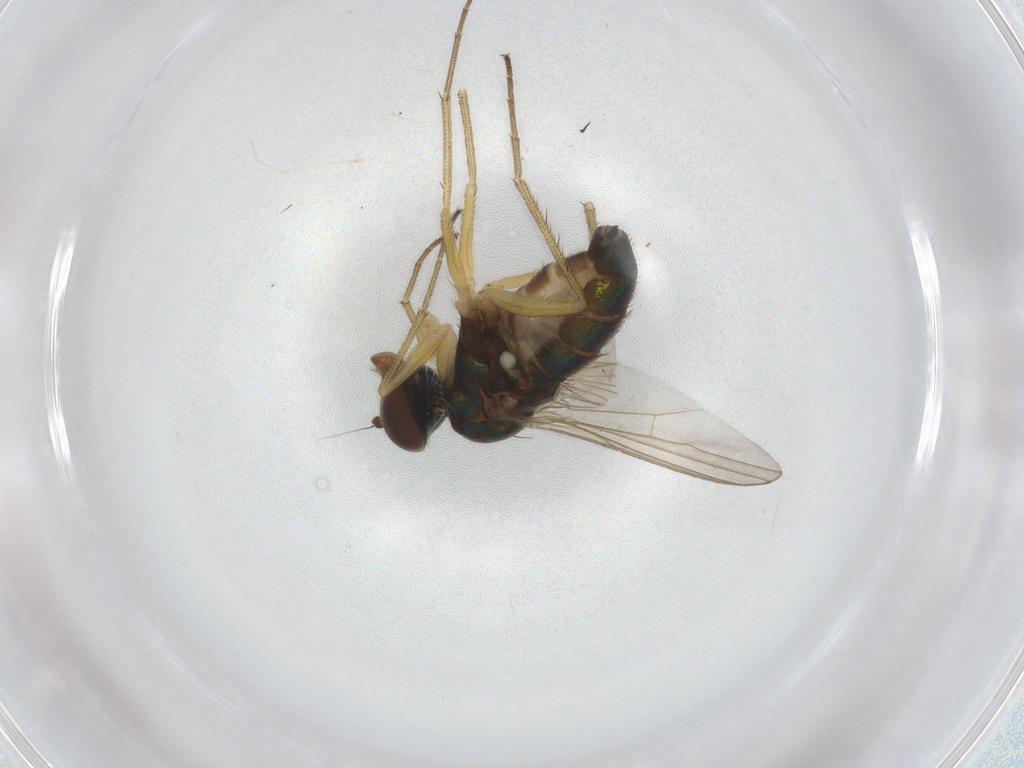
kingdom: Animalia
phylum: Arthropoda
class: Insecta
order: Diptera
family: Dolichopodidae
